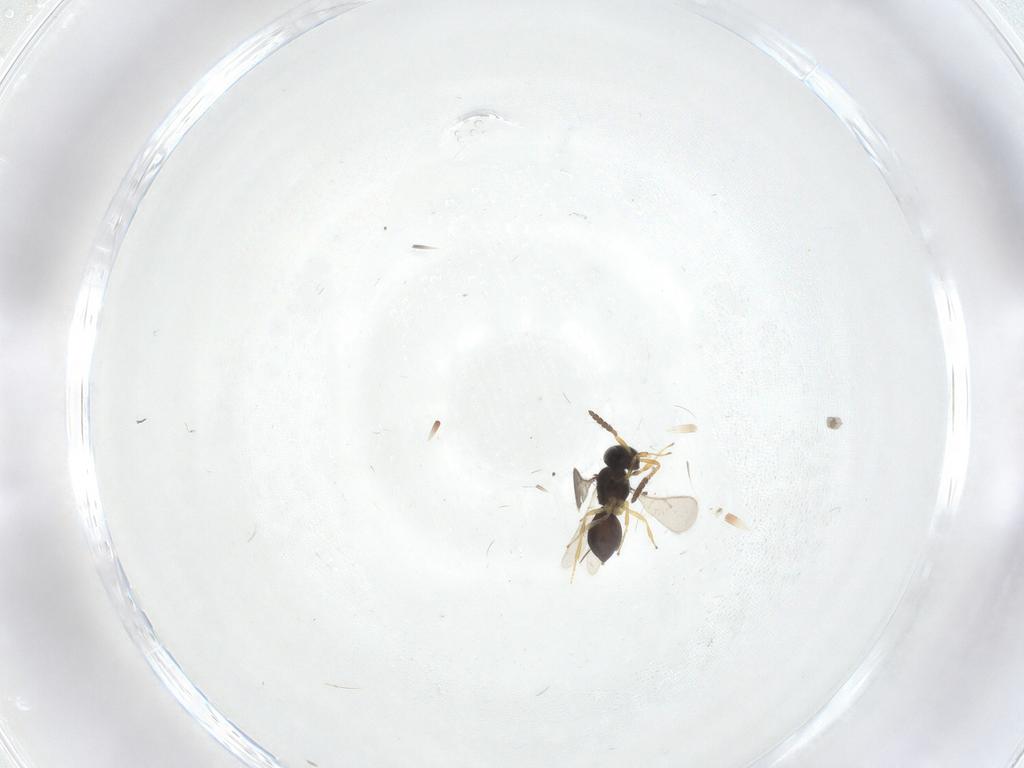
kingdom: Animalia
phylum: Arthropoda
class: Insecta
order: Hymenoptera
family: Scelionidae
